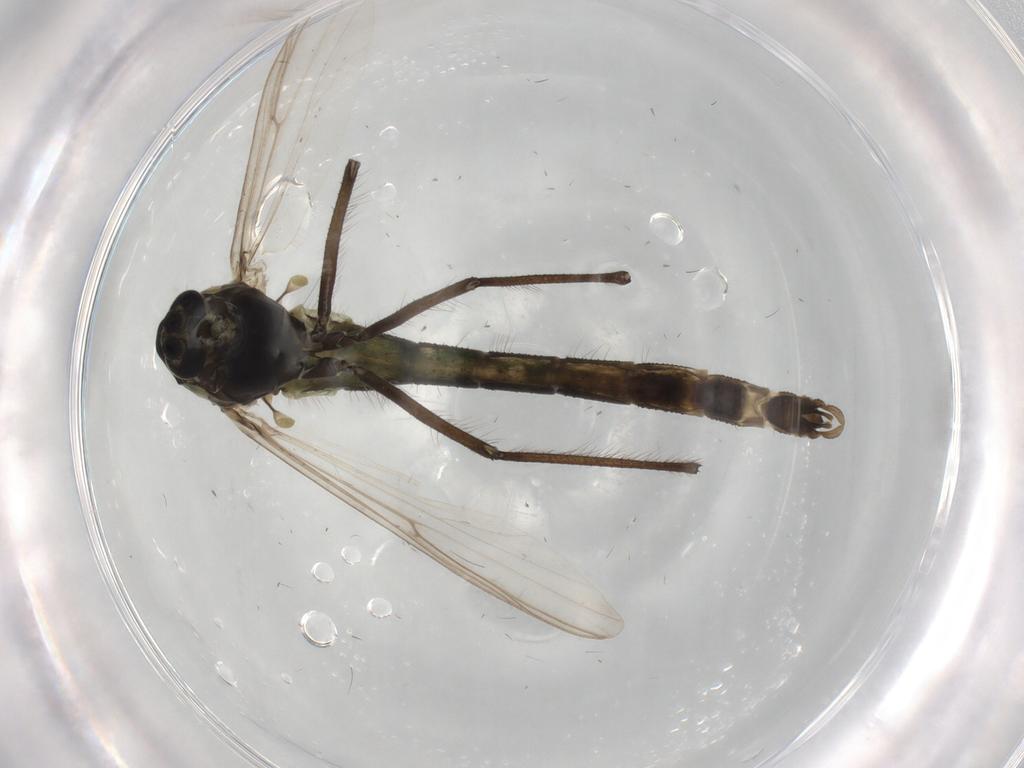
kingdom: Animalia
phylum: Arthropoda
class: Insecta
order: Diptera
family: Chironomidae
